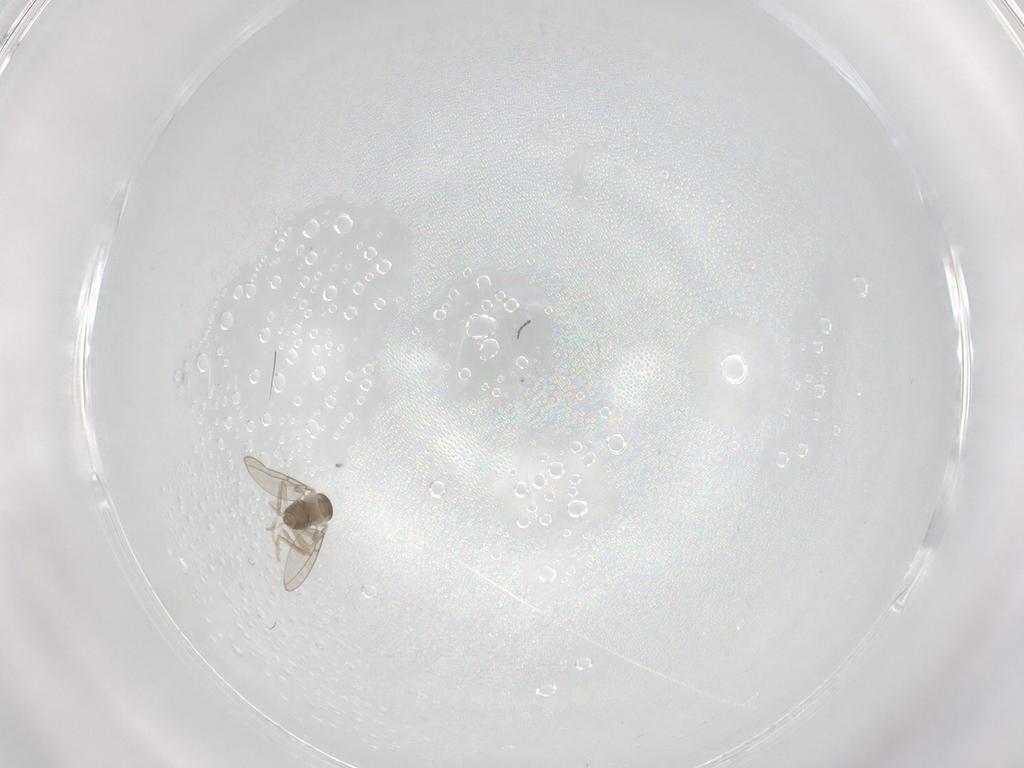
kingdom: Animalia
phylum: Arthropoda
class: Insecta
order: Diptera
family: Cecidomyiidae
